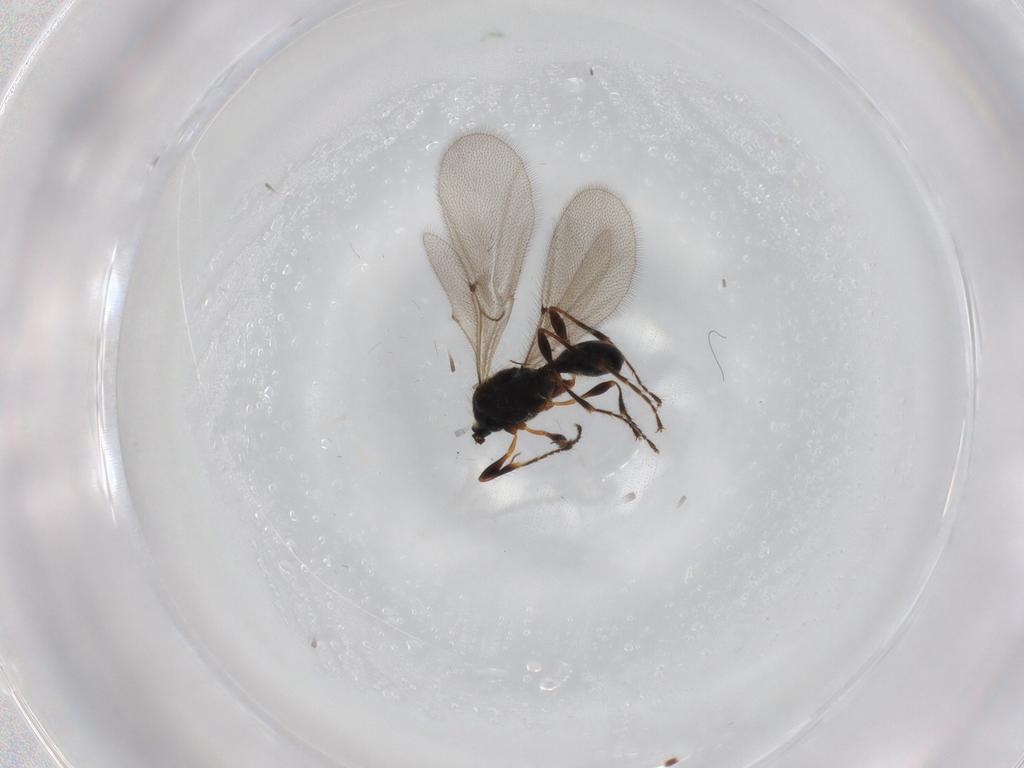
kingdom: Animalia
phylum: Arthropoda
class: Insecta
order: Hymenoptera
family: Diapriidae
